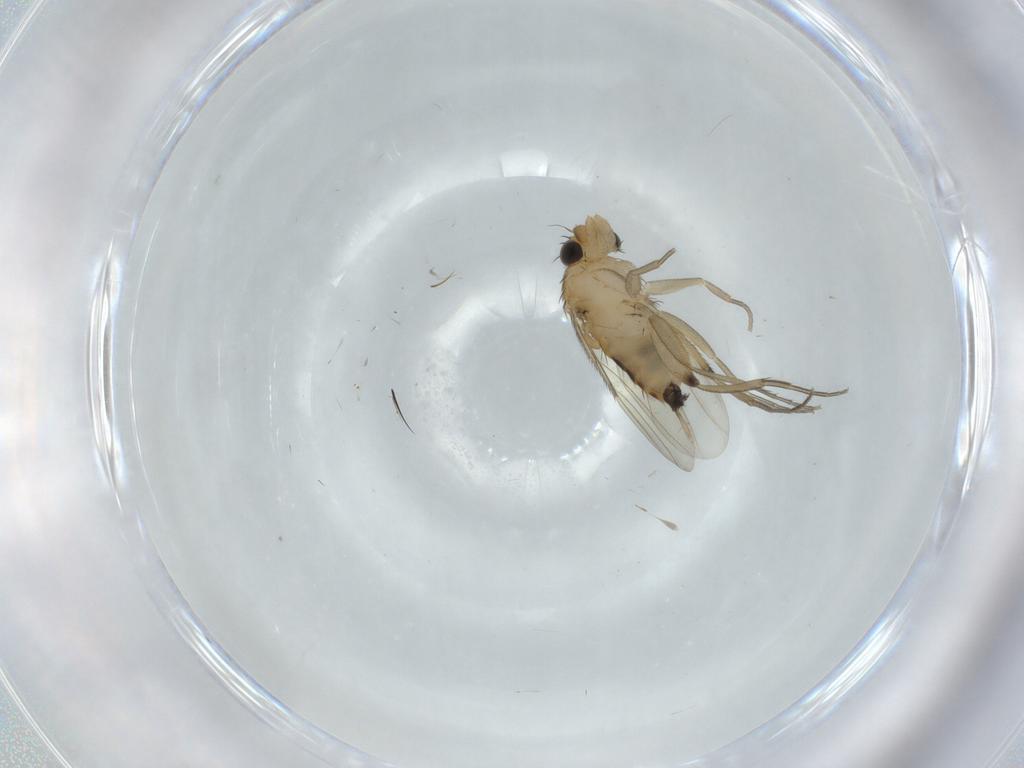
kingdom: Animalia
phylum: Arthropoda
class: Insecta
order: Diptera
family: Phoridae
